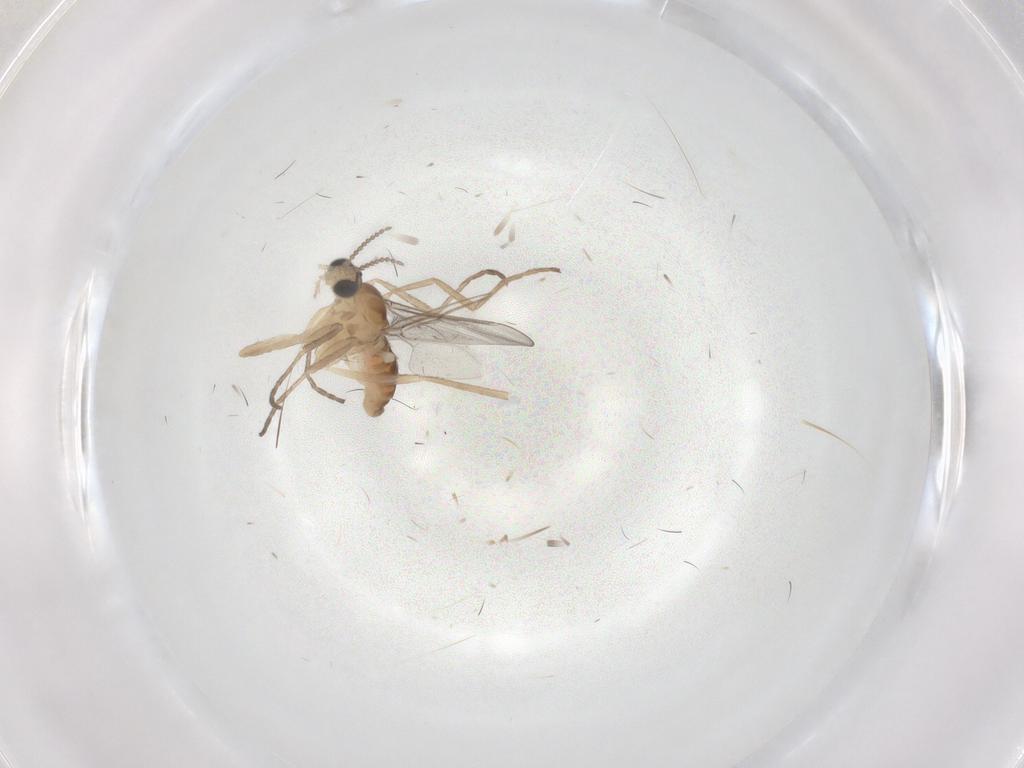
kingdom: Animalia
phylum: Arthropoda
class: Insecta
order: Diptera
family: Cecidomyiidae
